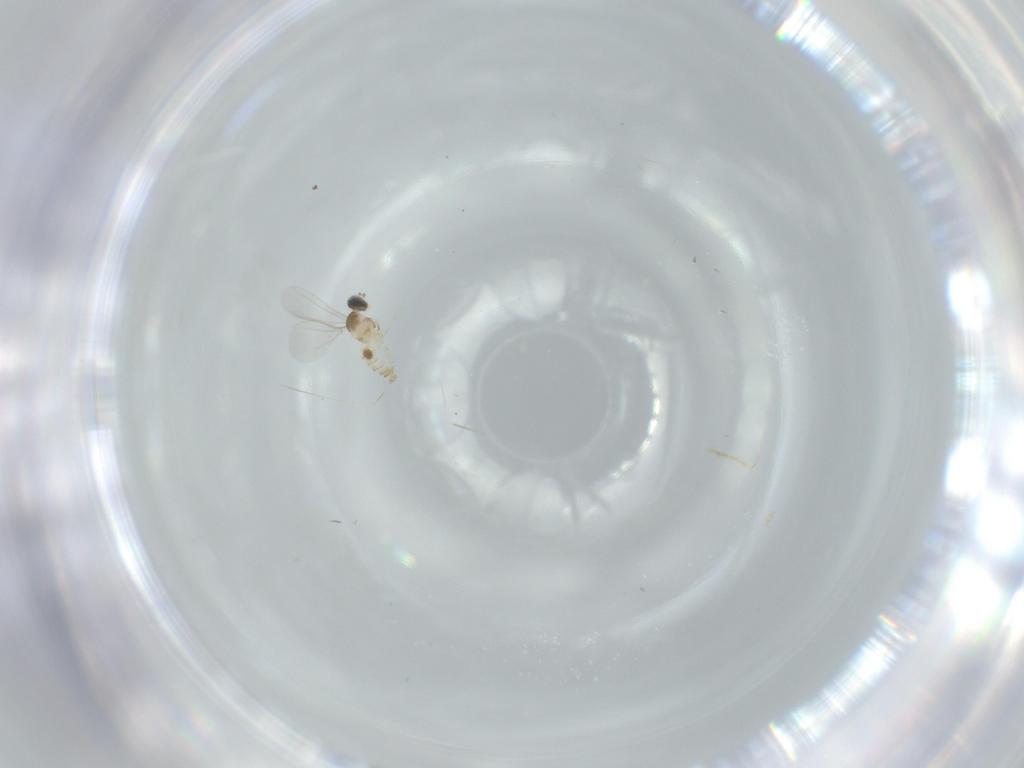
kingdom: Animalia
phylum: Arthropoda
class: Insecta
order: Diptera
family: Cecidomyiidae
